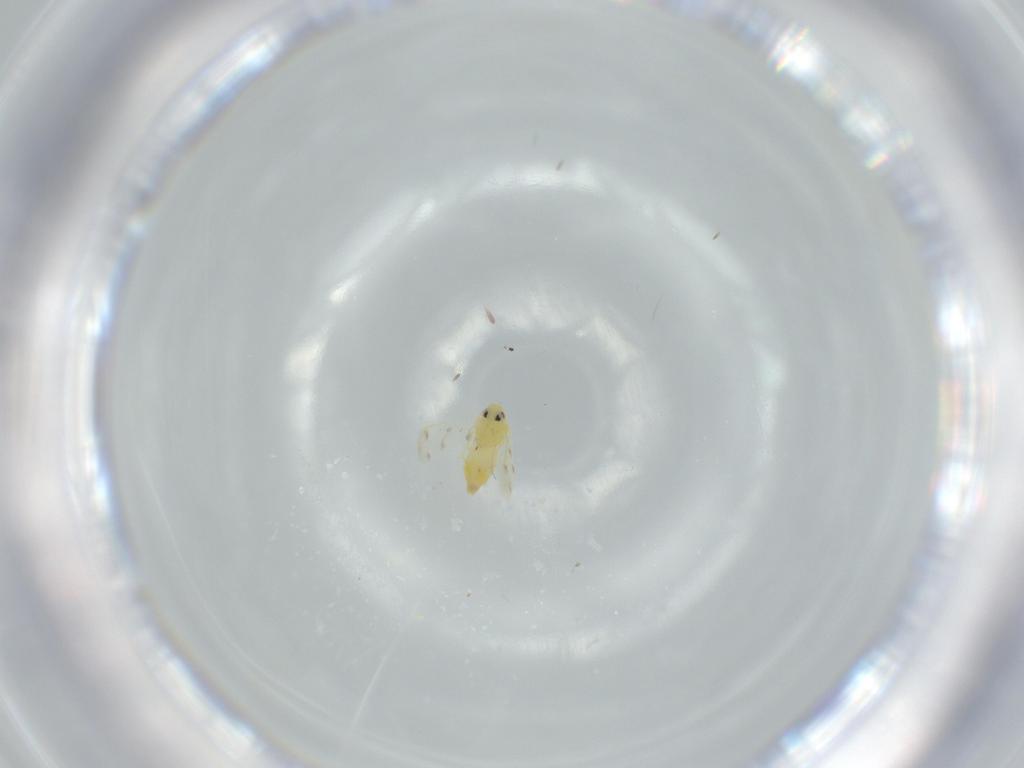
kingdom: Animalia
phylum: Arthropoda
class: Insecta
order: Hemiptera
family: Aleyrodidae
